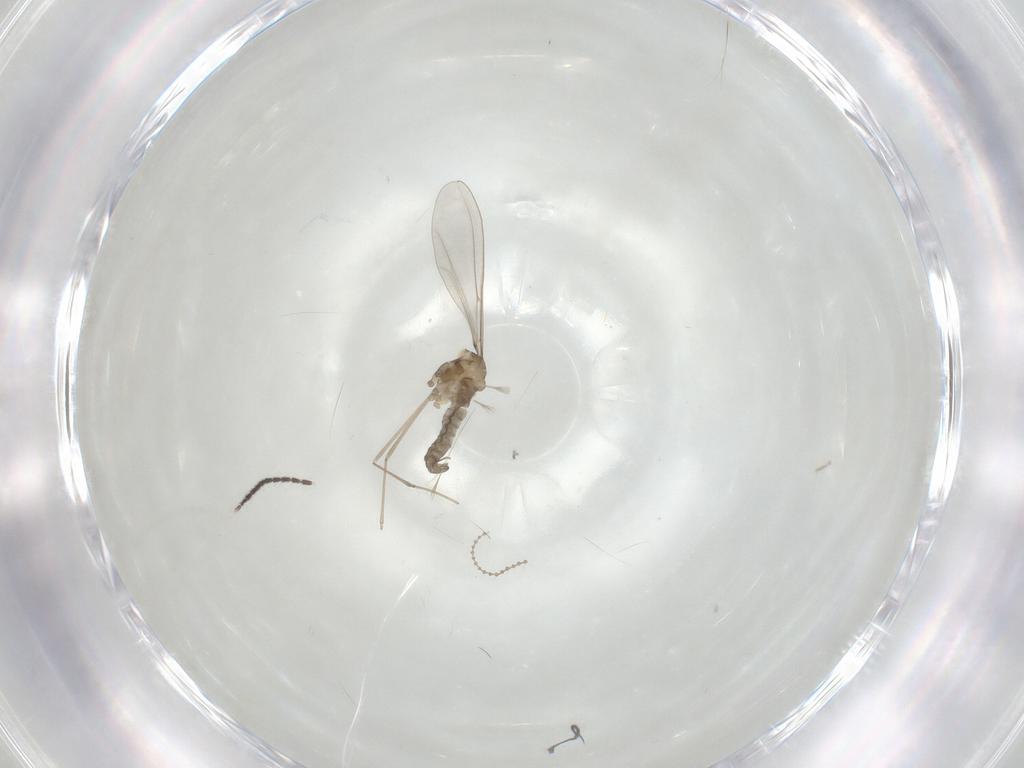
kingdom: Animalia
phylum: Arthropoda
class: Insecta
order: Diptera
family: Sciaridae
